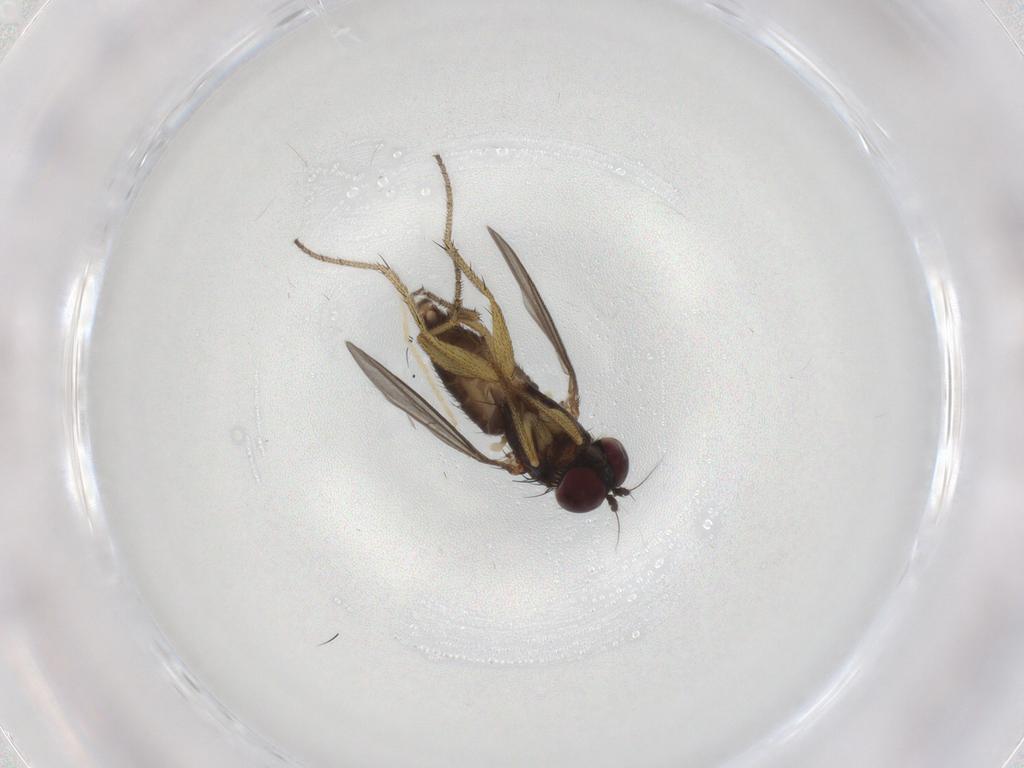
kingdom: Animalia
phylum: Arthropoda
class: Insecta
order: Diptera
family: Dolichopodidae
